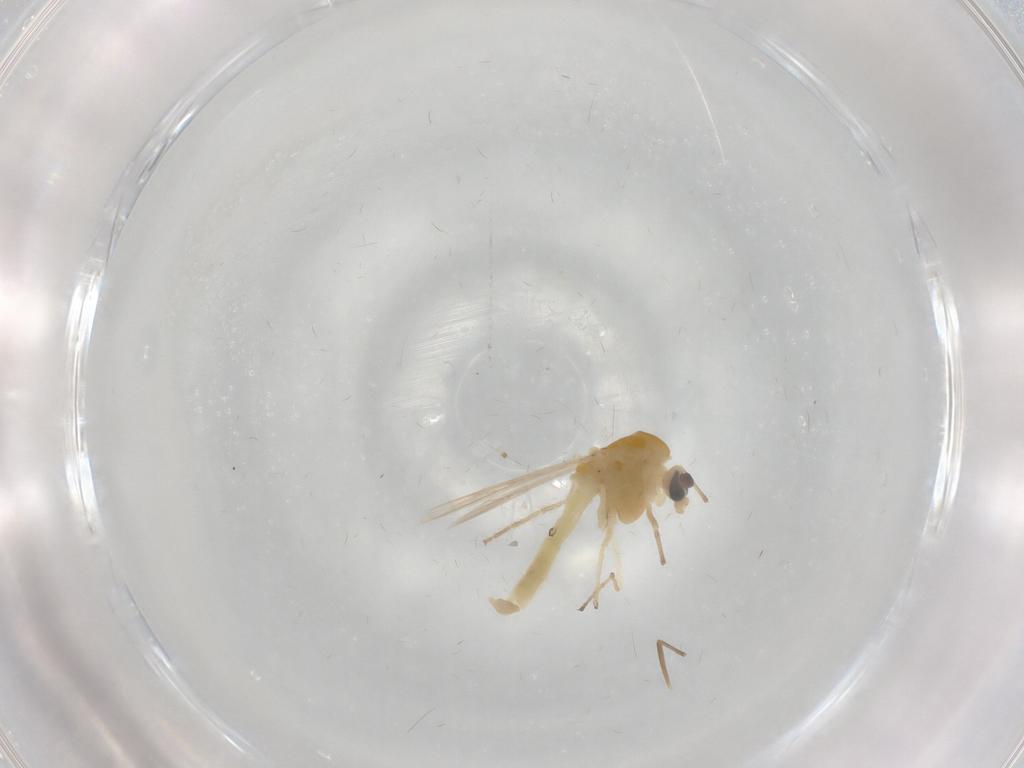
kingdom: Animalia
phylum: Arthropoda
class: Insecta
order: Diptera
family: Chironomidae
